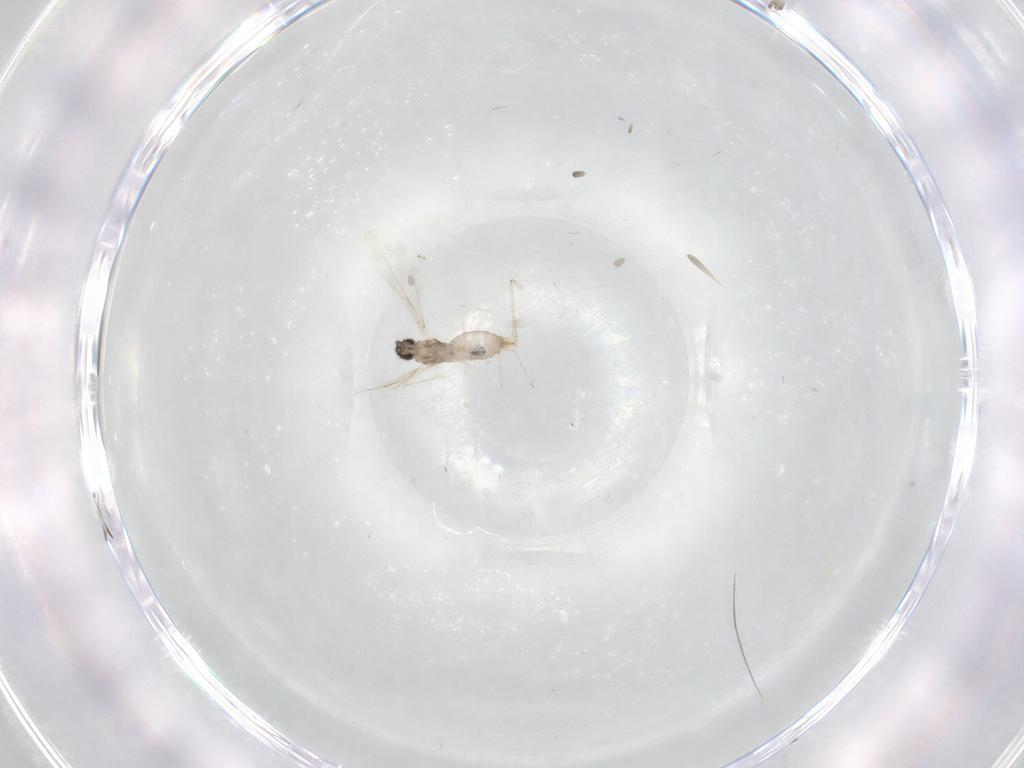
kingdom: Animalia
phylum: Arthropoda
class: Insecta
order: Diptera
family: Cecidomyiidae
